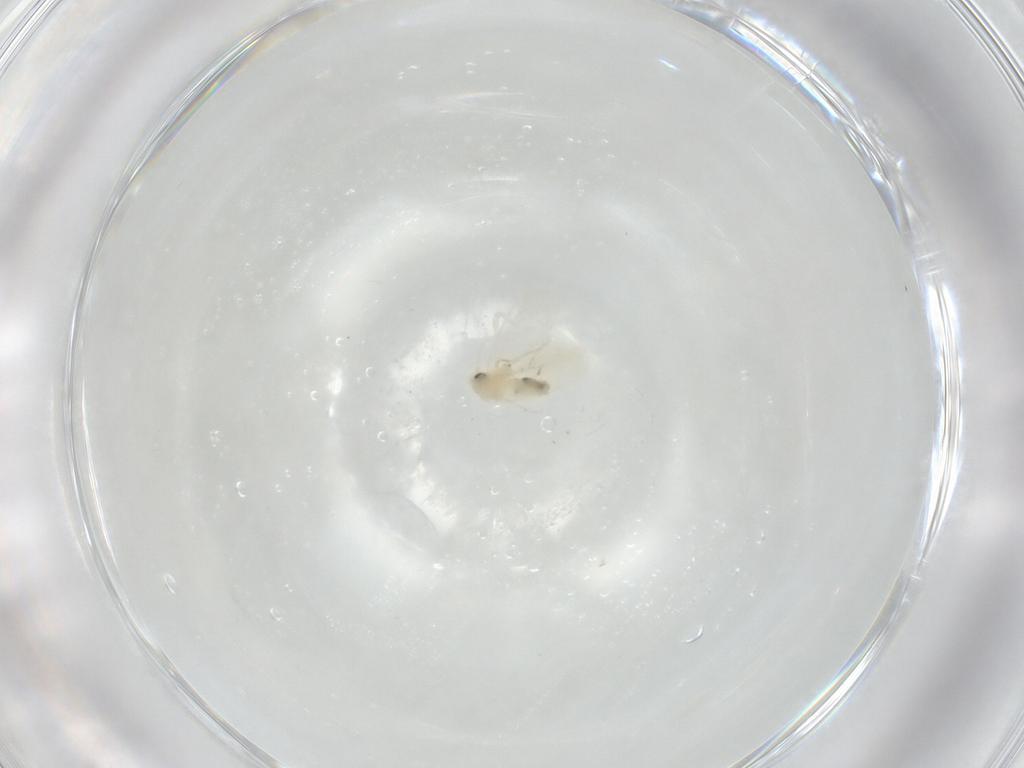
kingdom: Animalia
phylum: Arthropoda
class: Insecta
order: Hemiptera
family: Aleyrodidae
